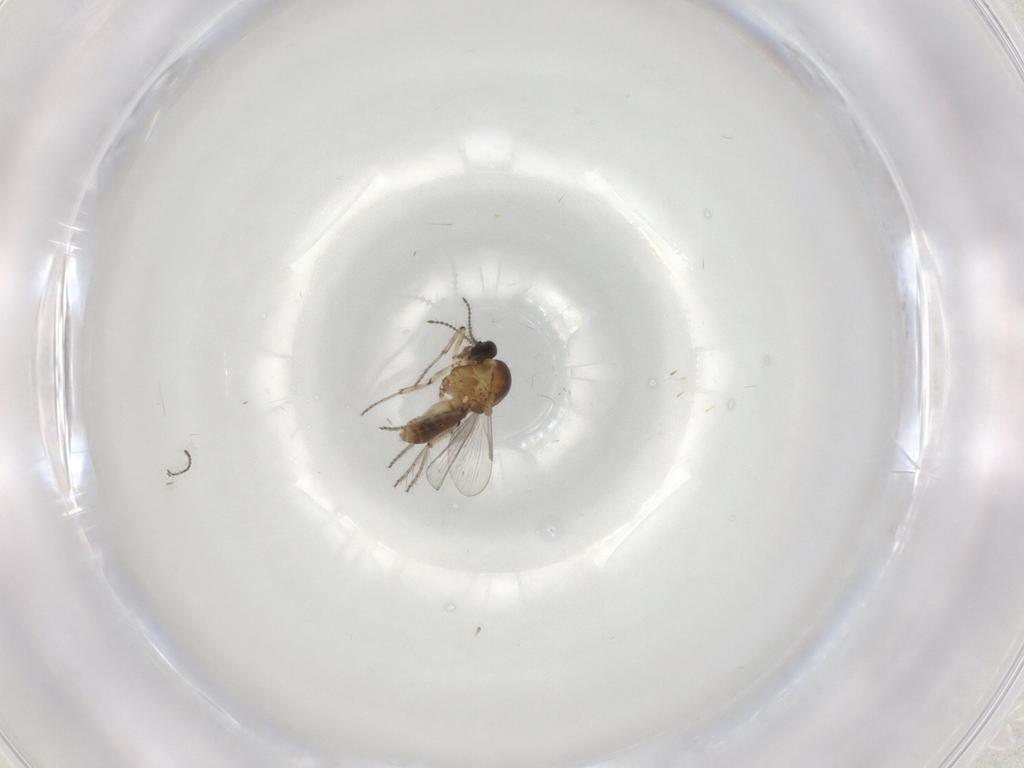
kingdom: Animalia
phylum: Arthropoda
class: Insecta
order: Diptera
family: Ceratopogonidae
